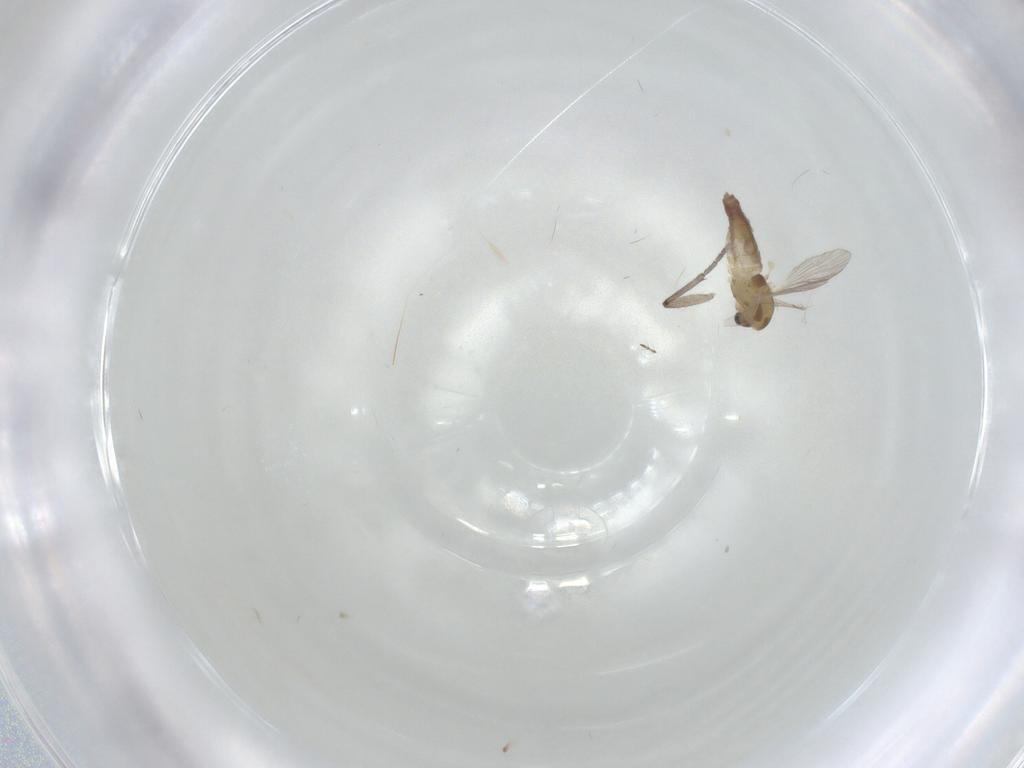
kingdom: Animalia
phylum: Arthropoda
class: Insecta
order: Diptera
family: Sciaridae
